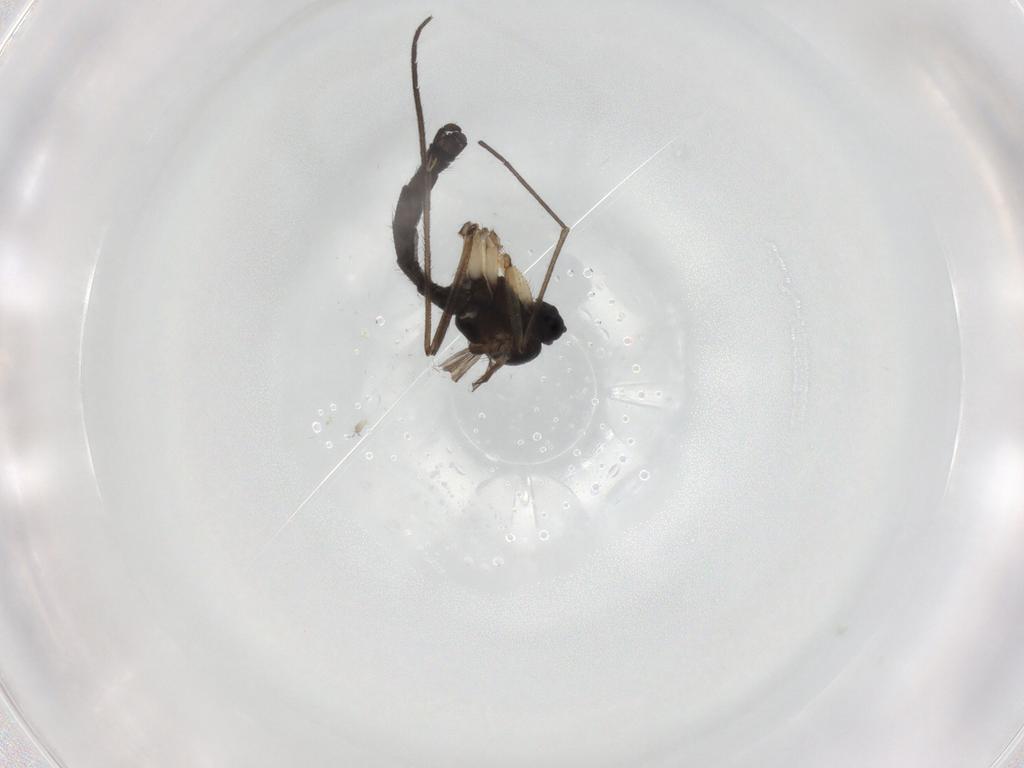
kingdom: Animalia
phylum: Arthropoda
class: Insecta
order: Diptera
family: Sciaridae
